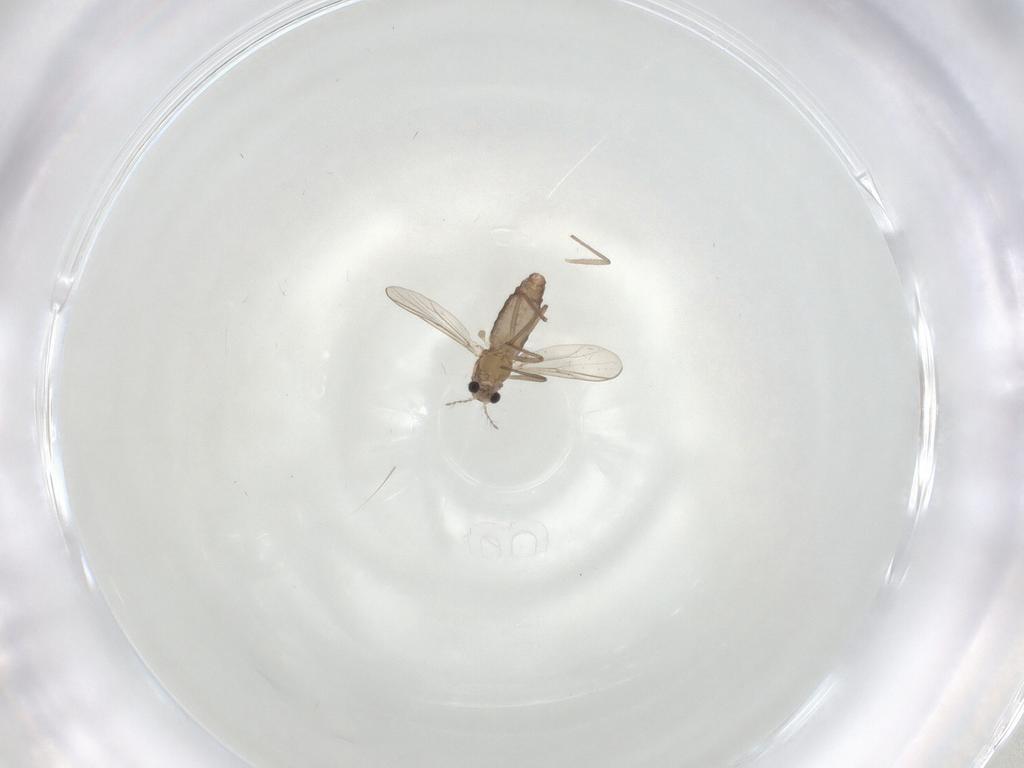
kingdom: Animalia
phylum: Arthropoda
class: Insecta
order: Diptera
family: Chironomidae
